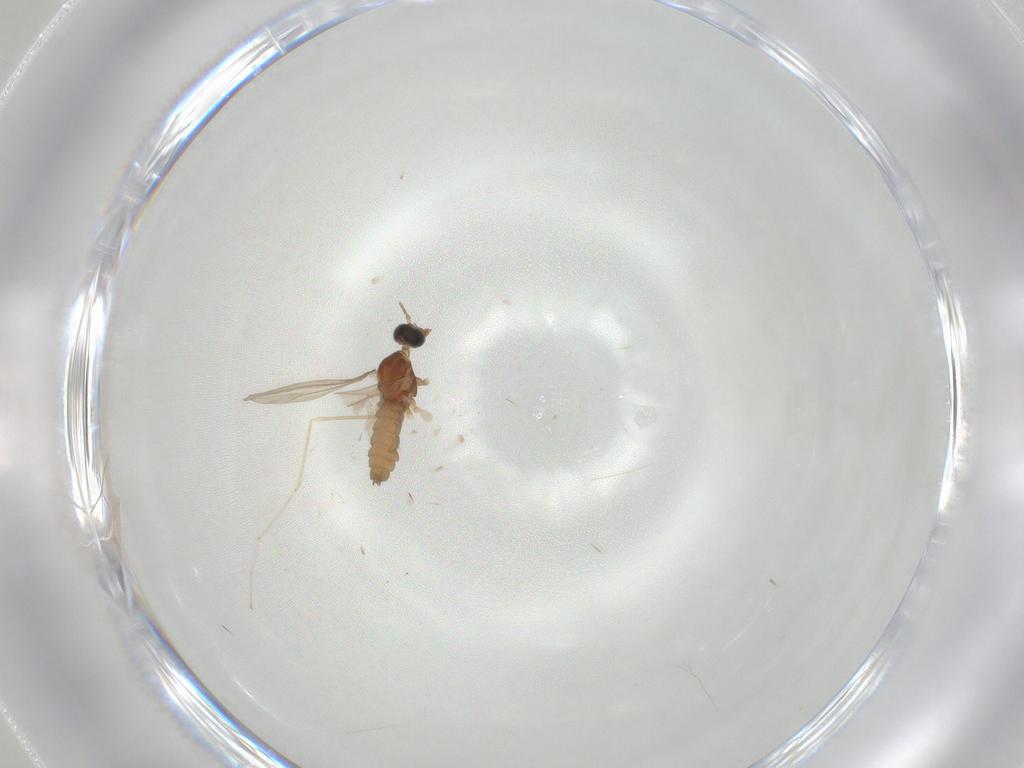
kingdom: Animalia
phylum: Arthropoda
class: Insecta
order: Diptera
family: Cecidomyiidae
